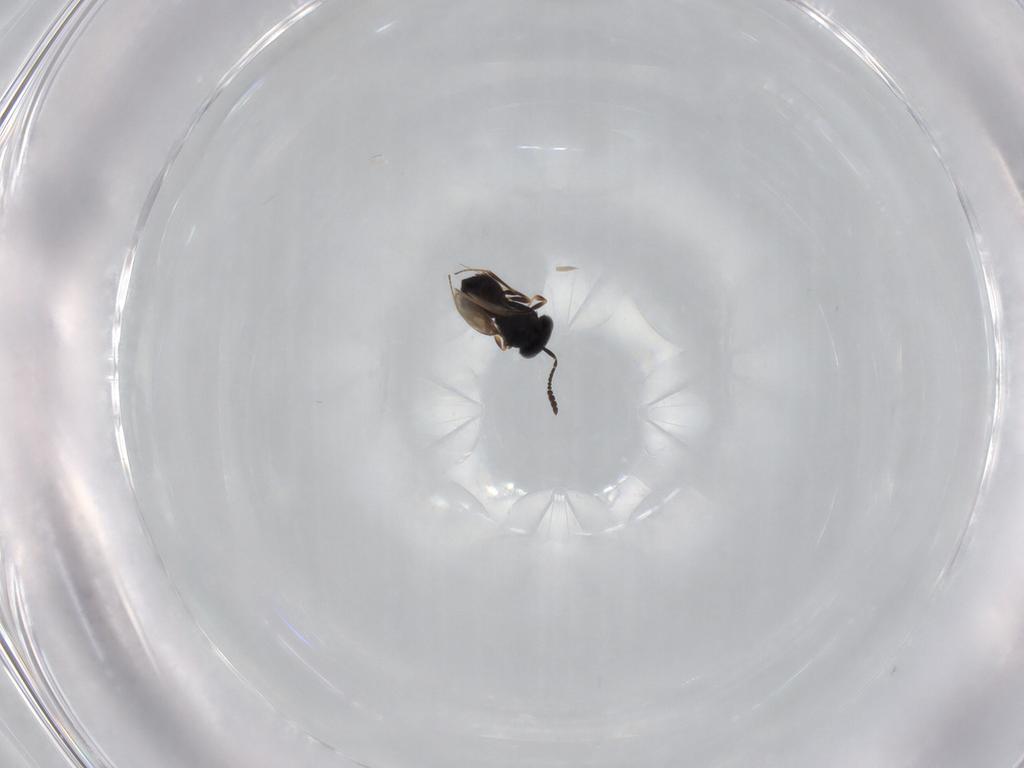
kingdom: Animalia
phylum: Arthropoda
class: Insecta
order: Hymenoptera
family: Scelionidae
